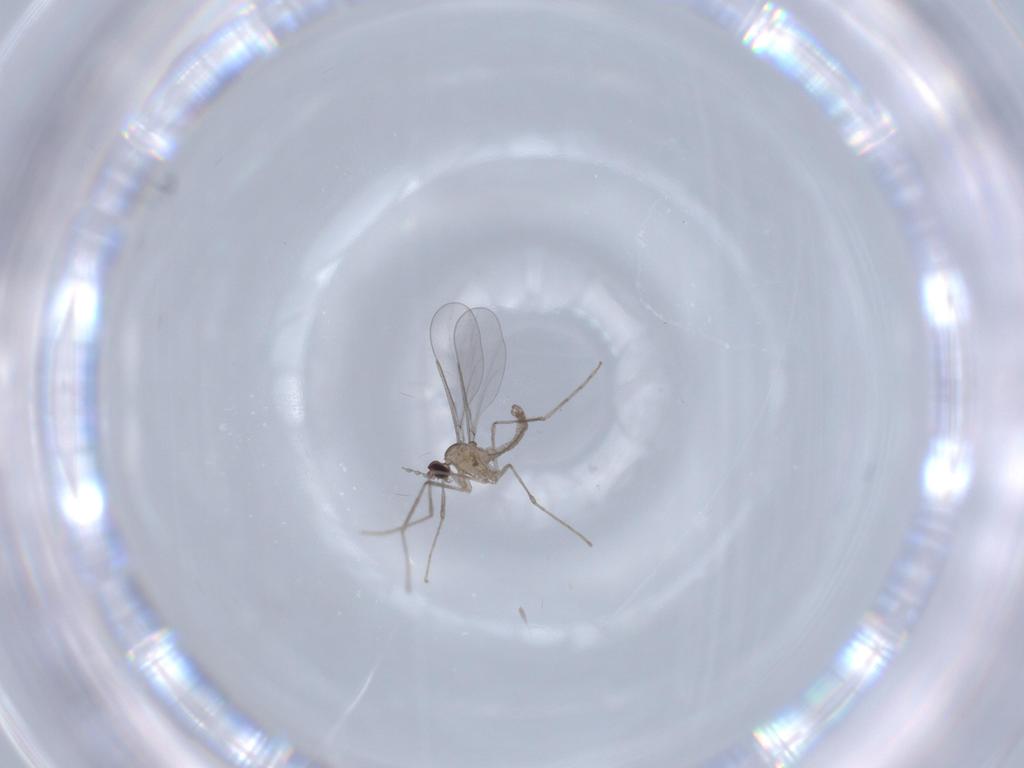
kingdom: Animalia
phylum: Arthropoda
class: Insecta
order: Diptera
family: Cecidomyiidae
